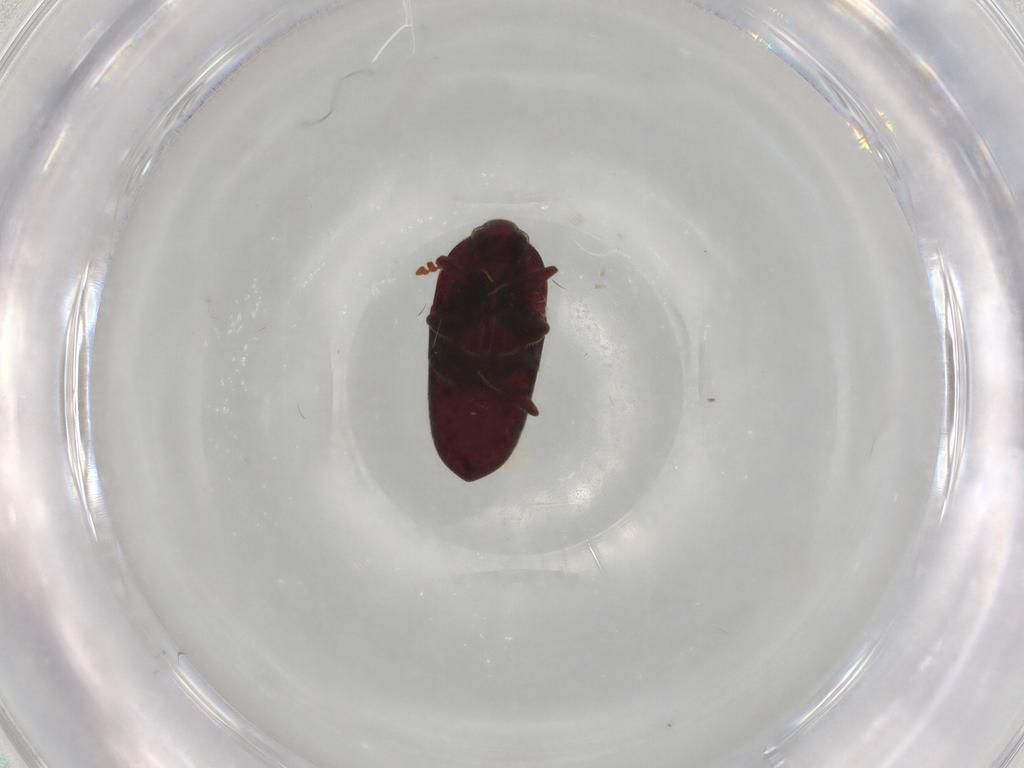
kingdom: Animalia
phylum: Arthropoda
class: Insecta
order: Coleoptera
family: Throscidae
